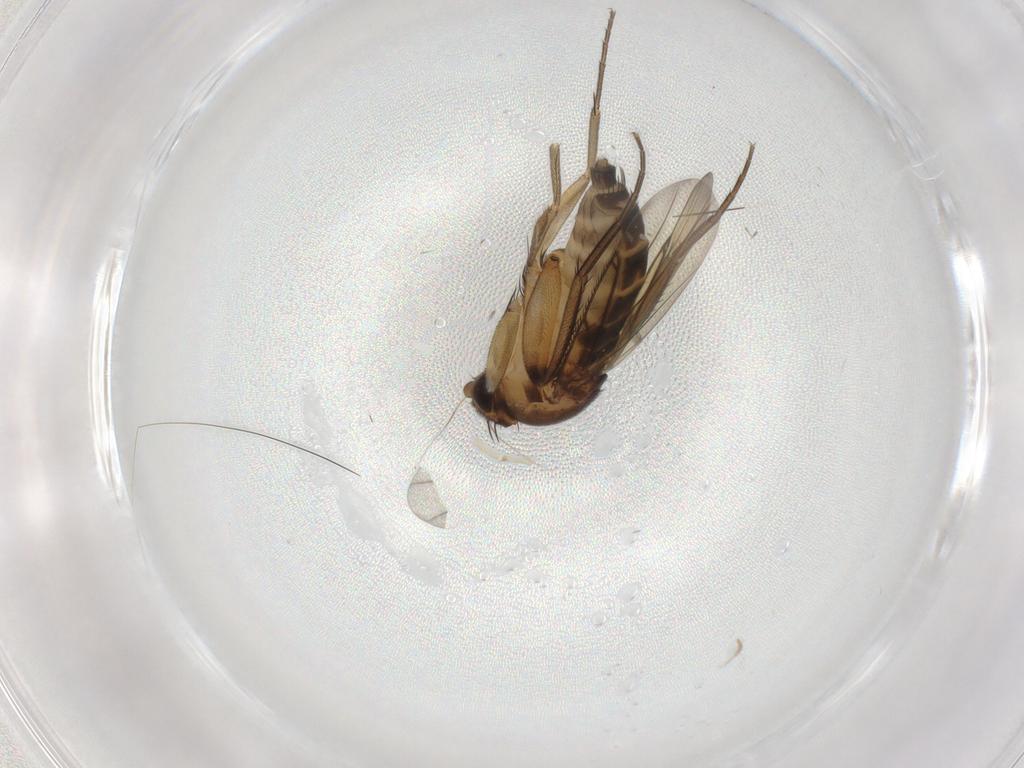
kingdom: Animalia
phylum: Arthropoda
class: Insecta
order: Diptera
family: Phoridae
